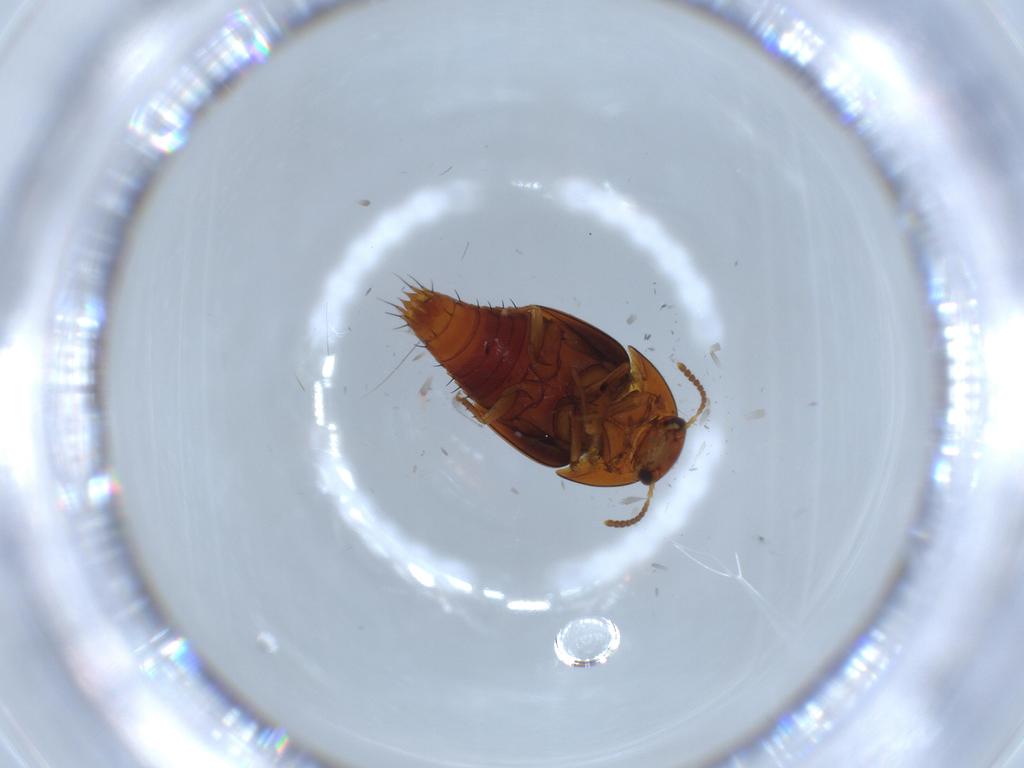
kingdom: Animalia
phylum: Arthropoda
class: Insecta
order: Coleoptera
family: Staphylinidae
